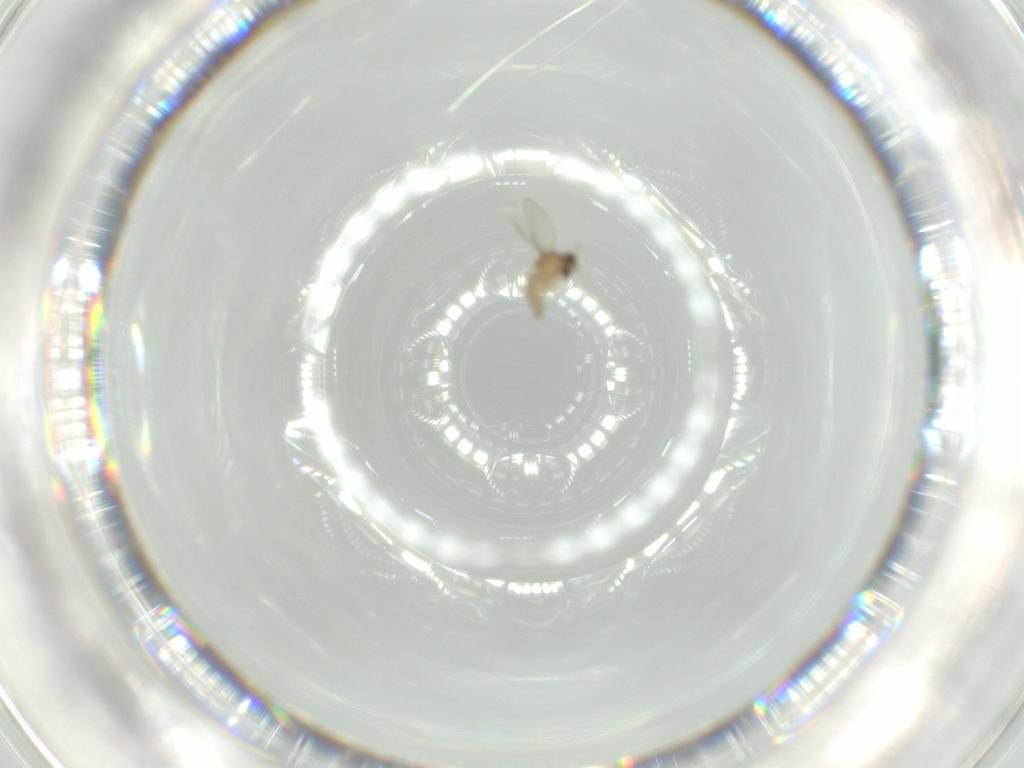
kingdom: Animalia
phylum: Arthropoda
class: Insecta
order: Diptera
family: Cecidomyiidae
